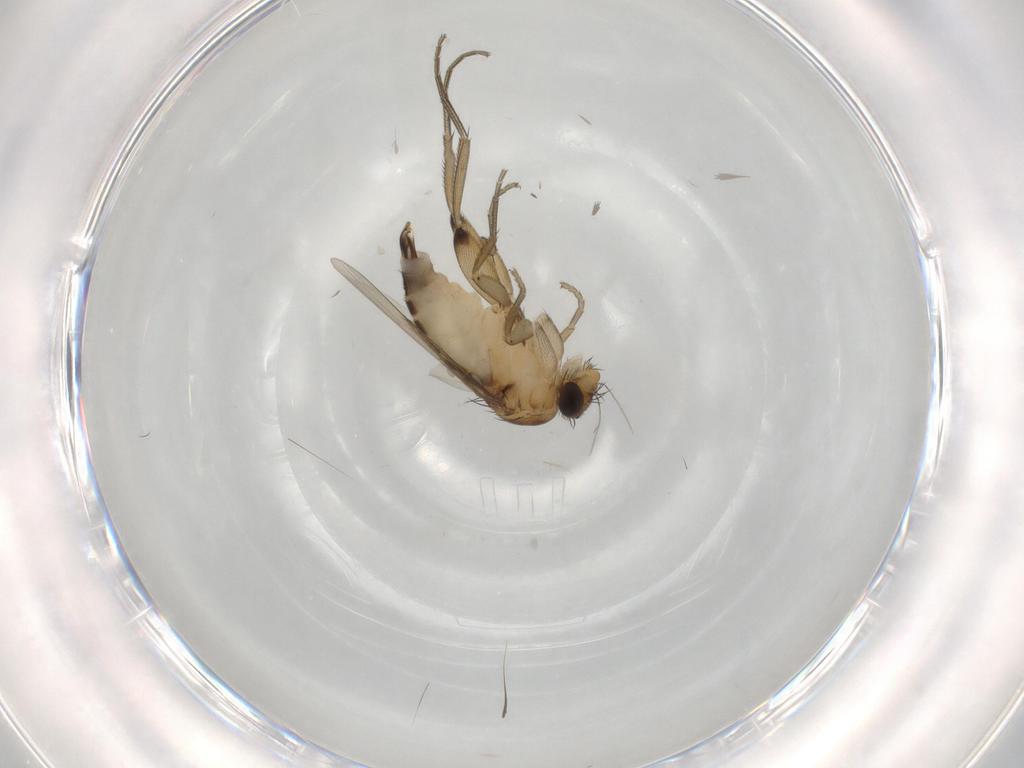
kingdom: Animalia
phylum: Arthropoda
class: Insecta
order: Diptera
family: Phoridae
